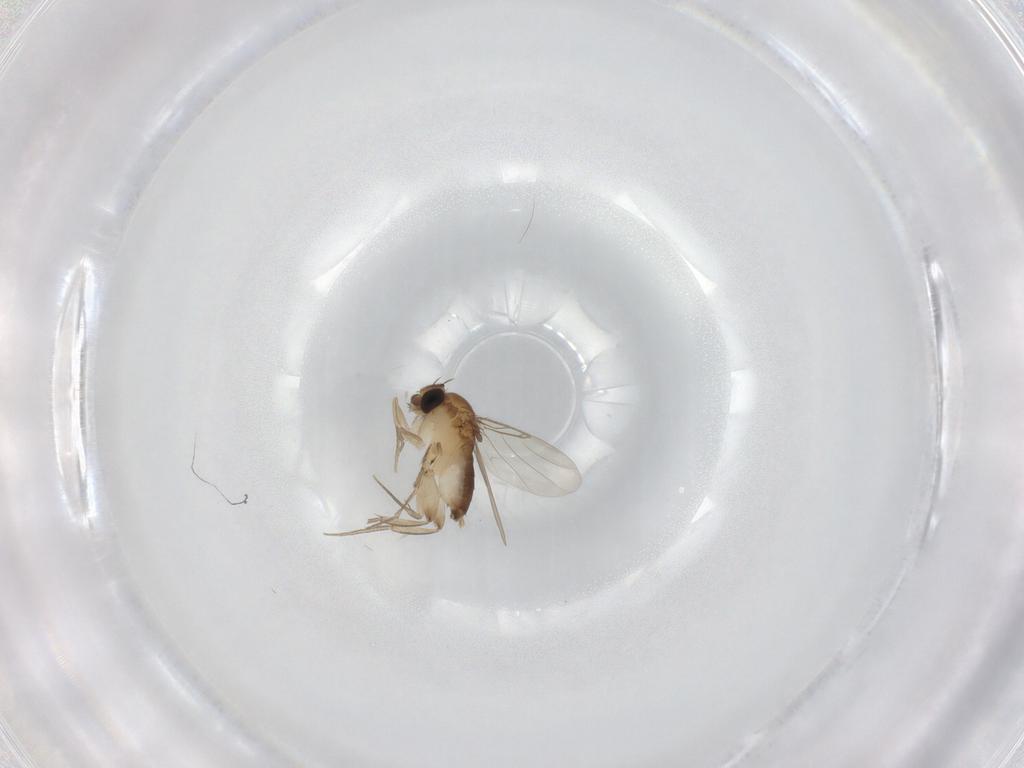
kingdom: Animalia
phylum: Arthropoda
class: Insecta
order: Diptera
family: Phoridae
